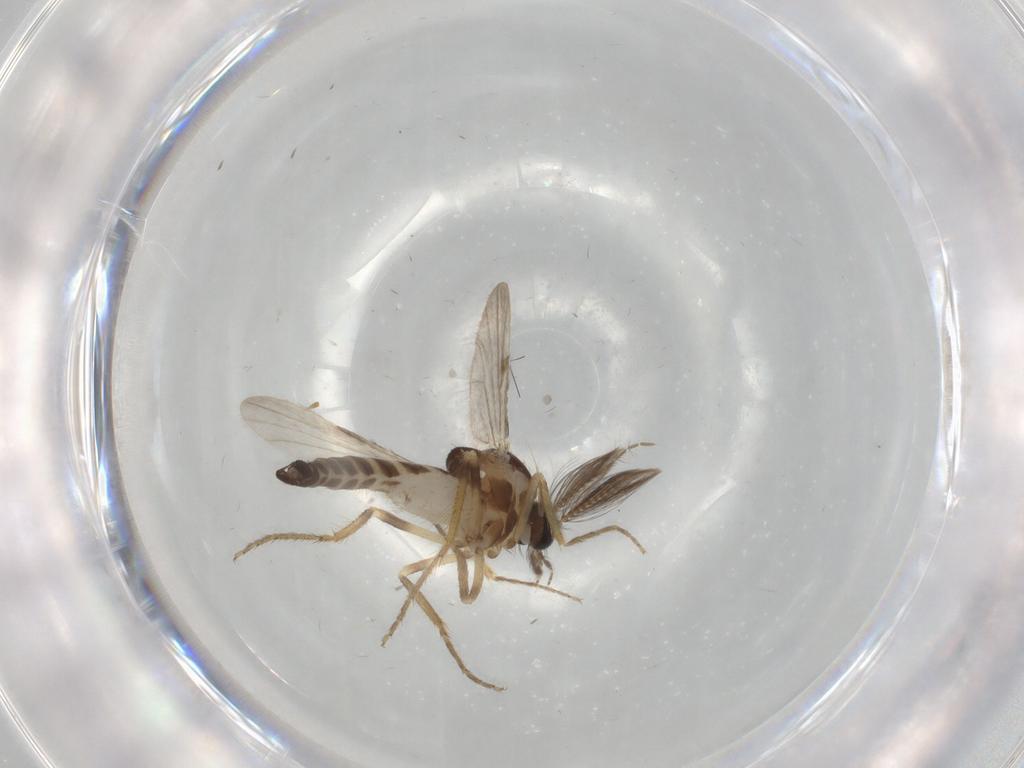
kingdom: Animalia
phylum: Arthropoda
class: Insecta
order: Diptera
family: Ceratopogonidae
